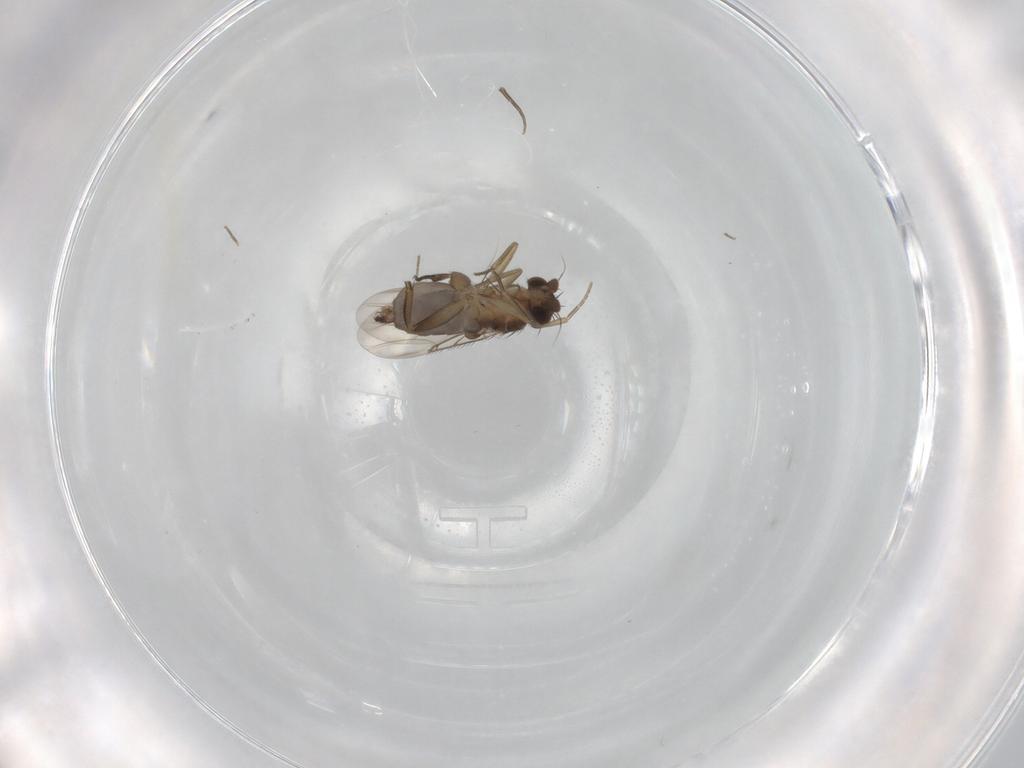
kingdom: Animalia
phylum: Arthropoda
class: Insecta
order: Diptera
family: Phoridae
